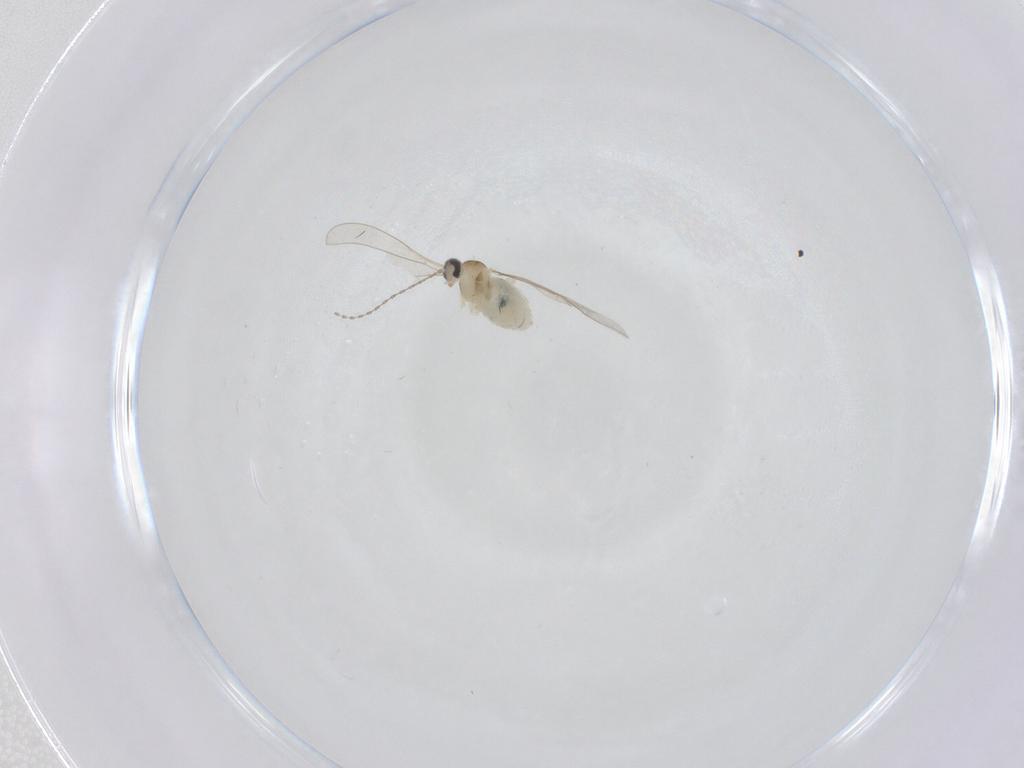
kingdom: Animalia
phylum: Arthropoda
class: Insecta
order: Diptera
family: Cecidomyiidae
